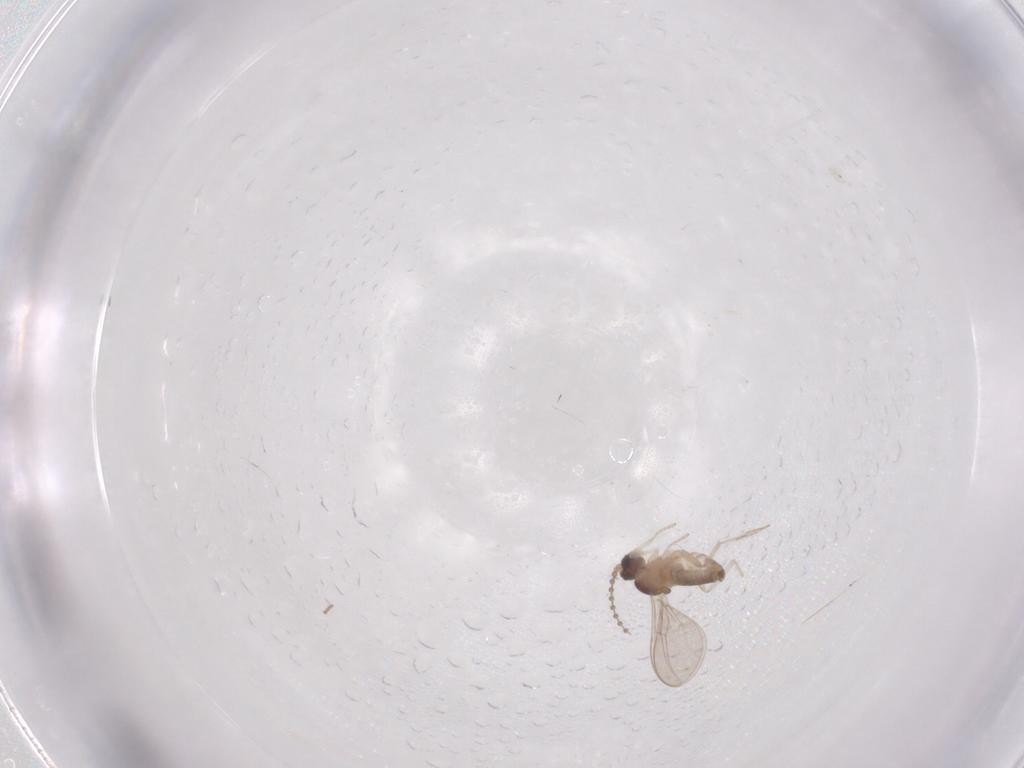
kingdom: Animalia
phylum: Arthropoda
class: Insecta
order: Diptera
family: Cecidomyiidae
